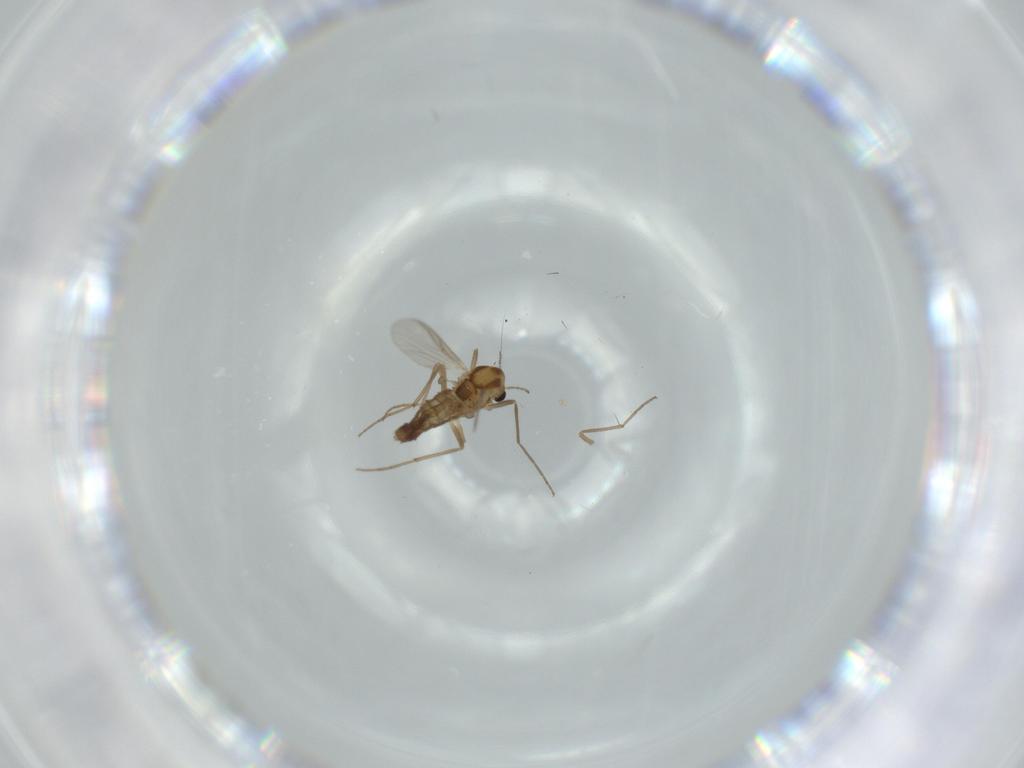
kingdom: Animalia
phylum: Arthropoda
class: Insecta
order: Diptera
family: Chironomidae
